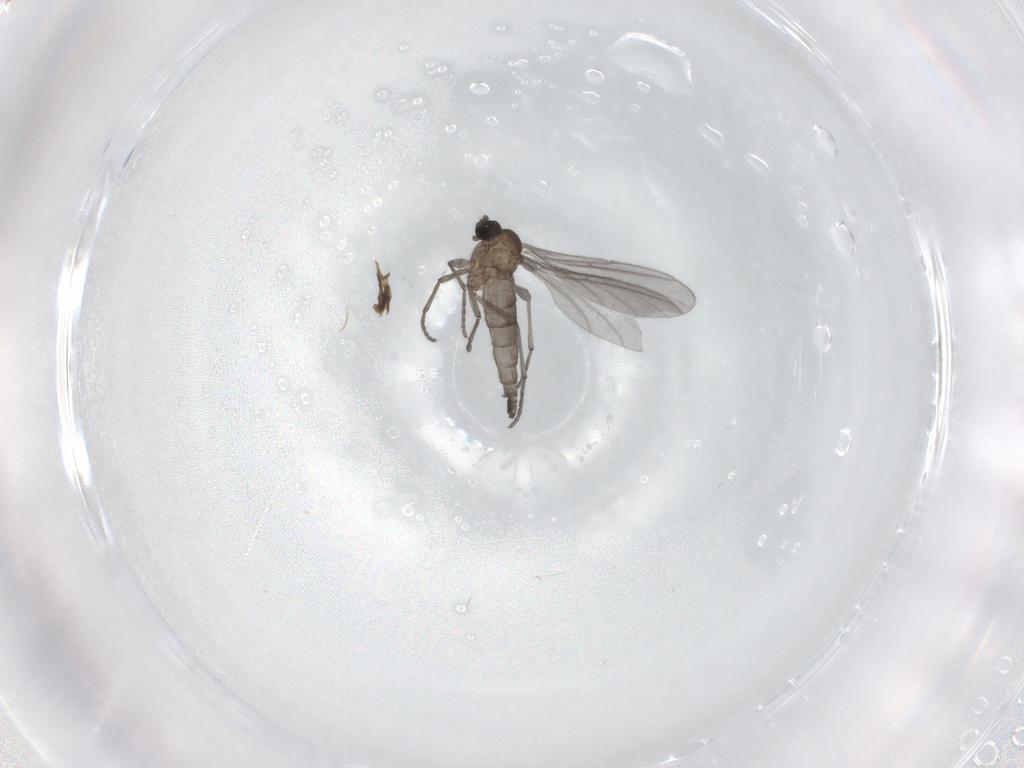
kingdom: Animalia
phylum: Arthropoda
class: Insecta
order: Diptera
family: Sciaridae
